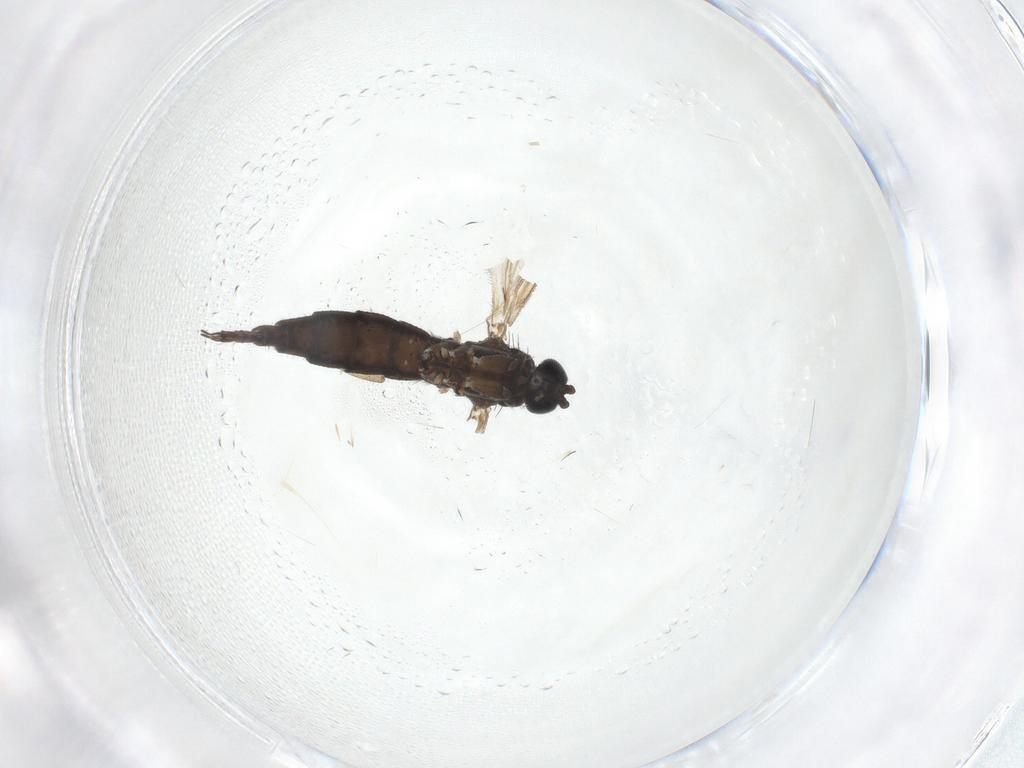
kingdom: Animalia
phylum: Arthropoda
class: Insecta
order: Diptera
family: Sciaridae
